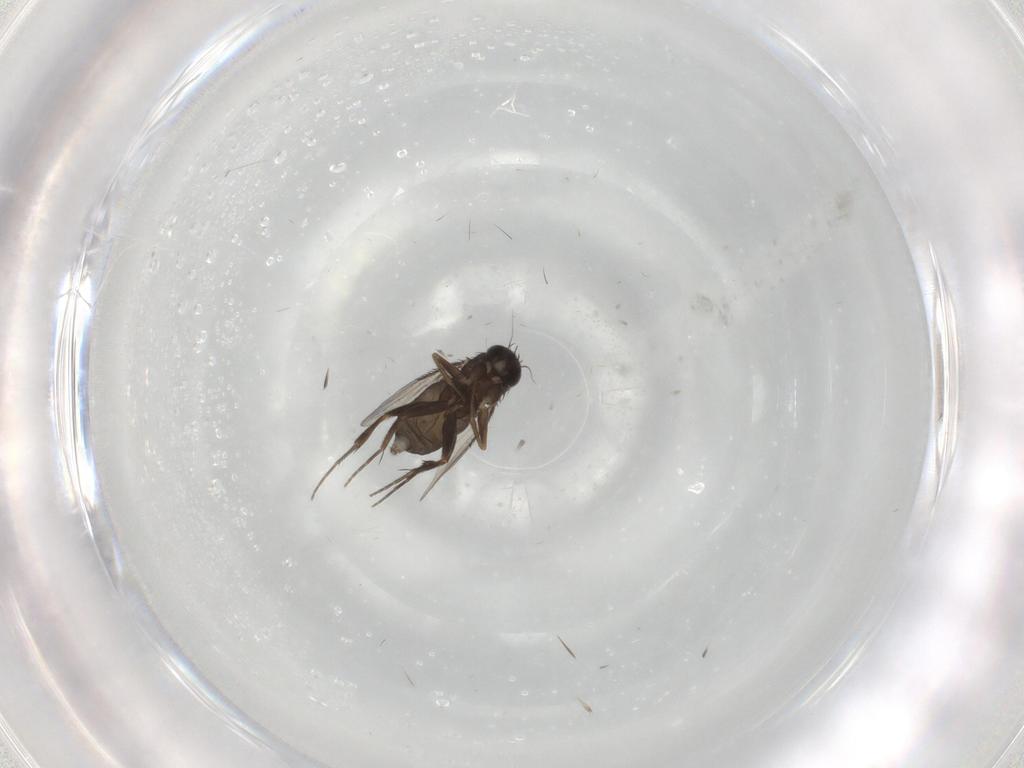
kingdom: Animalia
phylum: Arthropoda
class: Insecta
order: Diptera
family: Phoridae
